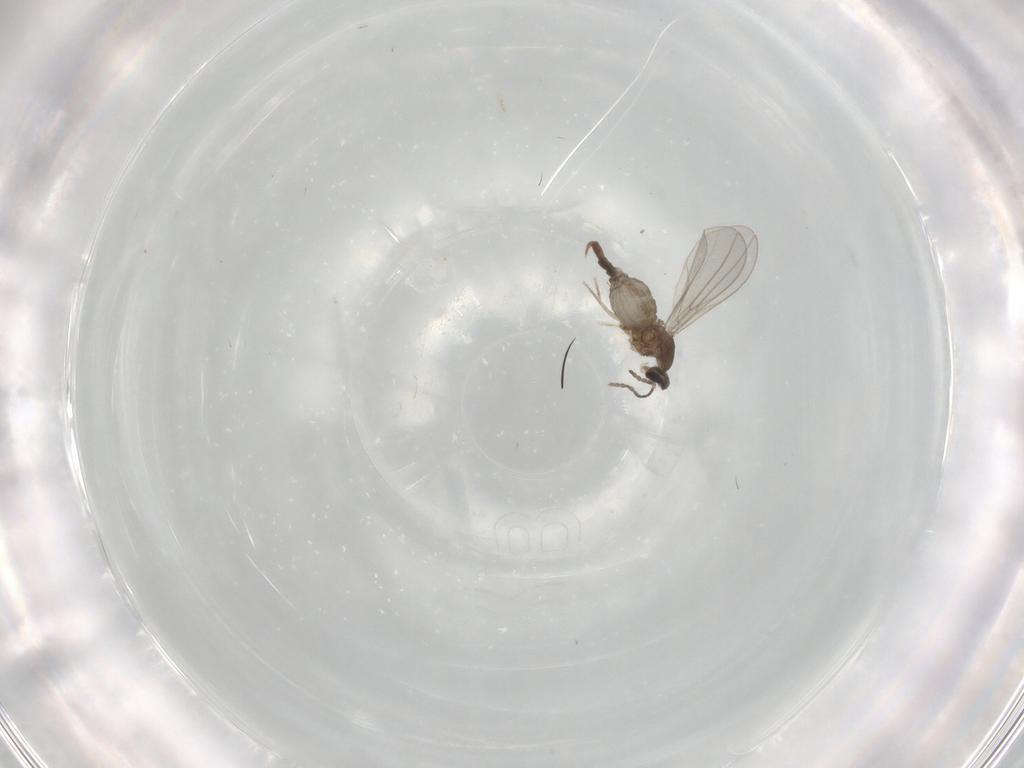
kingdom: Animalia
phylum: Arthropoda
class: Insecta
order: Diptera
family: Cecidomyiidae
